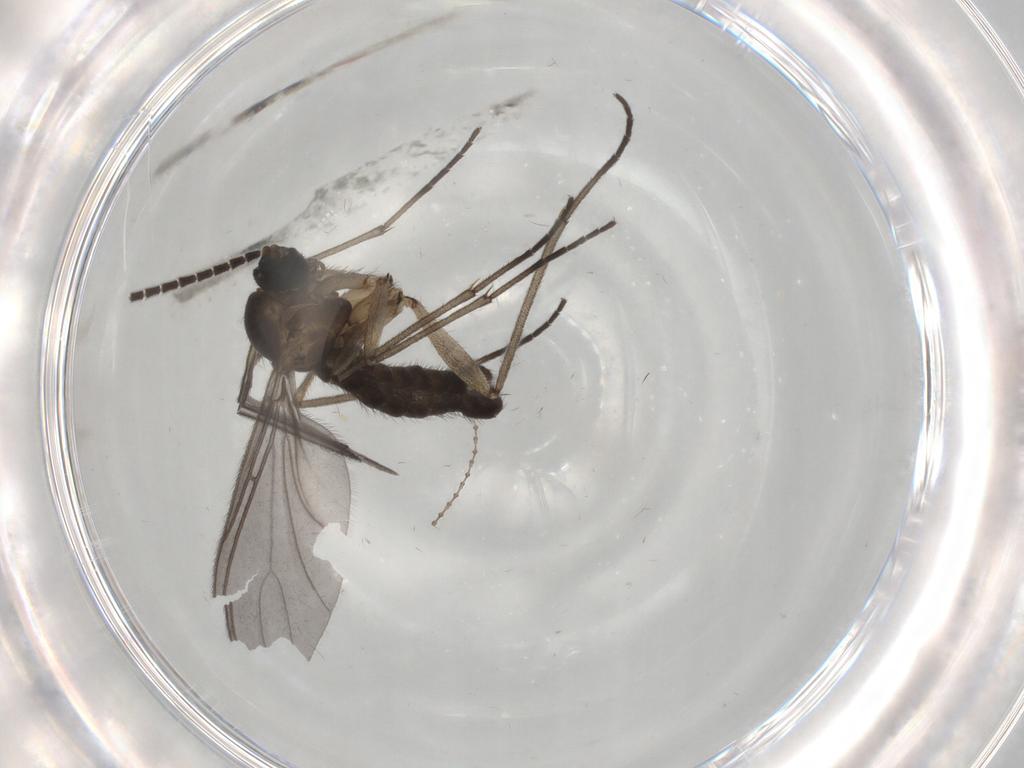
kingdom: Animalia
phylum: Arthropoda
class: Insecta
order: Diptera
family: Sciaridae
